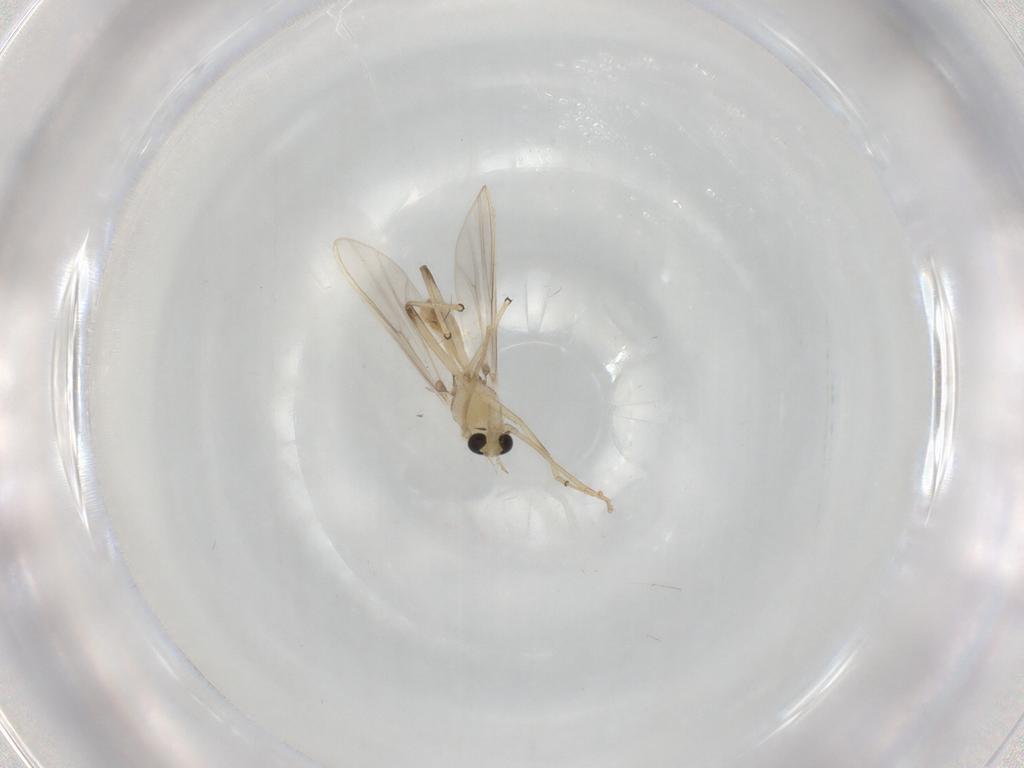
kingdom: Animalia
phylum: Arthropoda
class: Insecta
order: Diptera
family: Chironomidae
